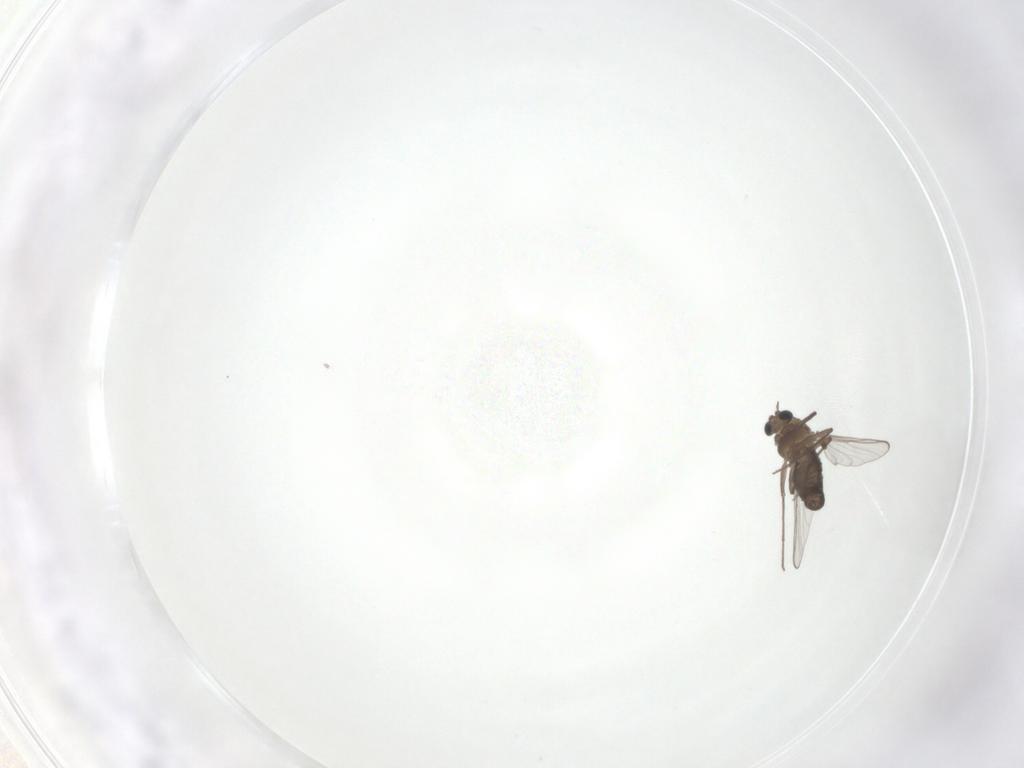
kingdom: Animalia
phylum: Arthropoda
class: Insecta
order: Diptera
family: Chironomidae
